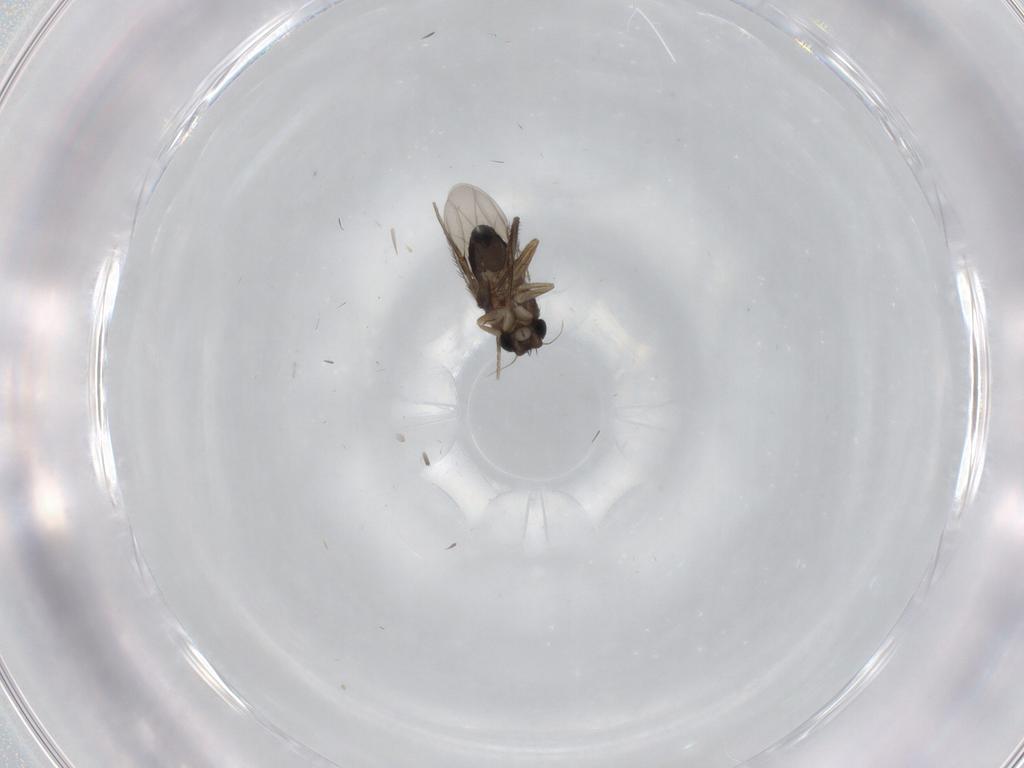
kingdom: Animalia
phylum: Arthropoda
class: Insecta
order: Diptera
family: Phoridae
